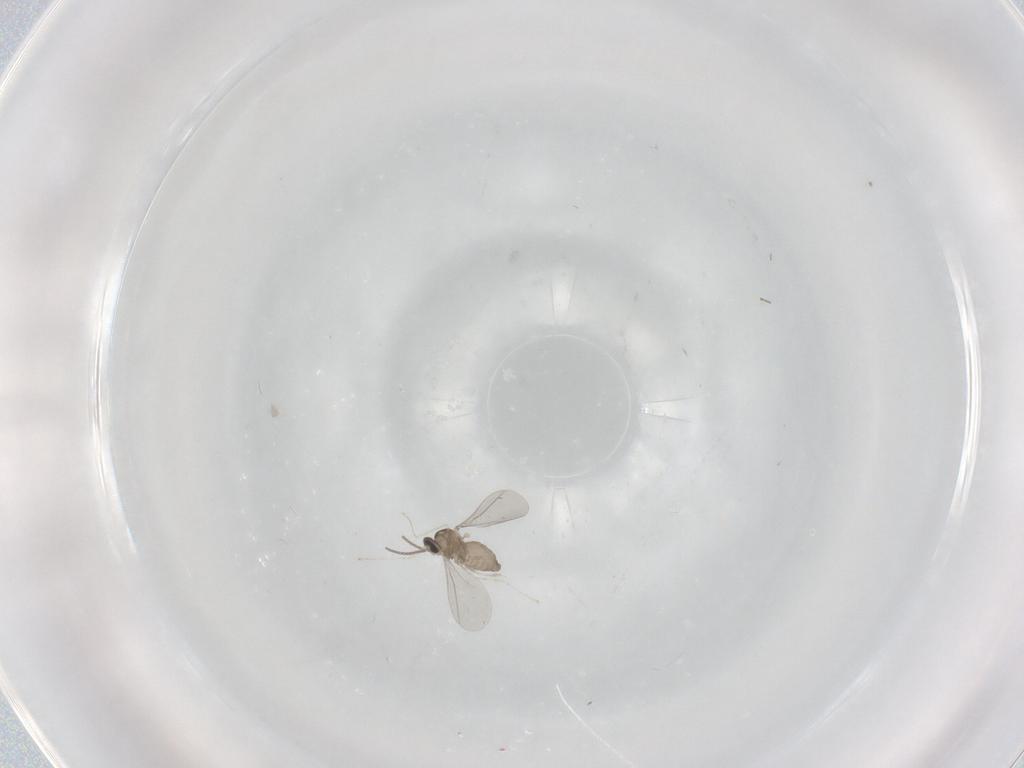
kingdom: Animalia
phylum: Arthropoda
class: Insecta
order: Diptera
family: Cecidomyiidae
